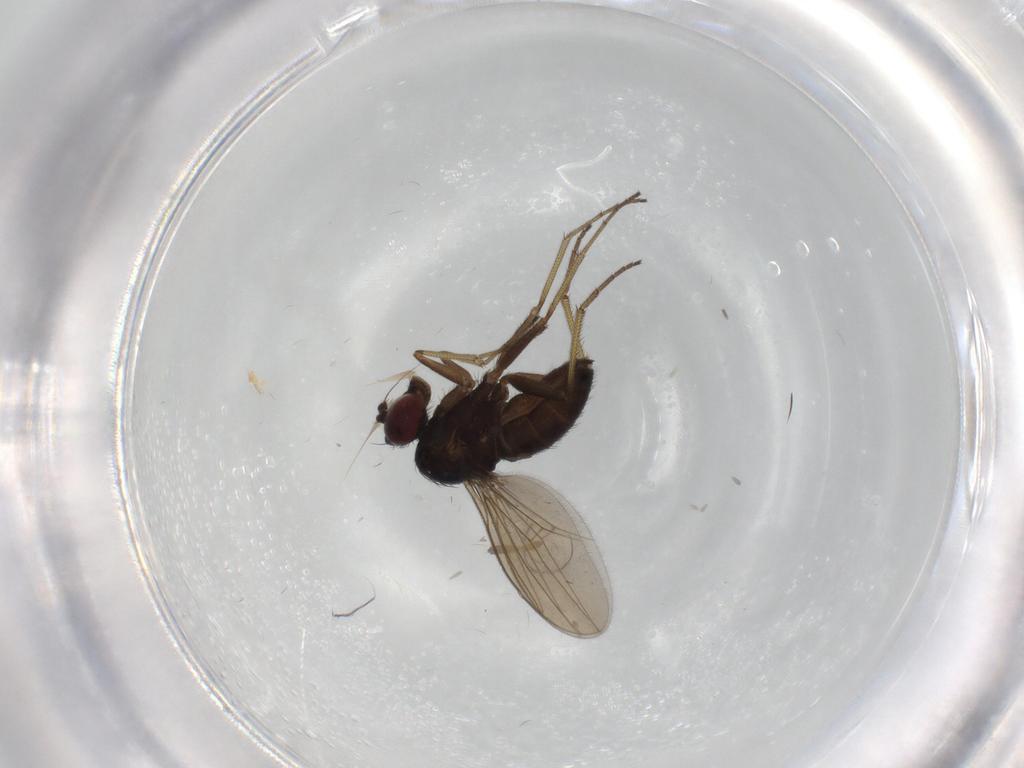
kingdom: Animalia
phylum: Arthropoda
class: Insecta
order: Diptera
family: Dolichopodidae
